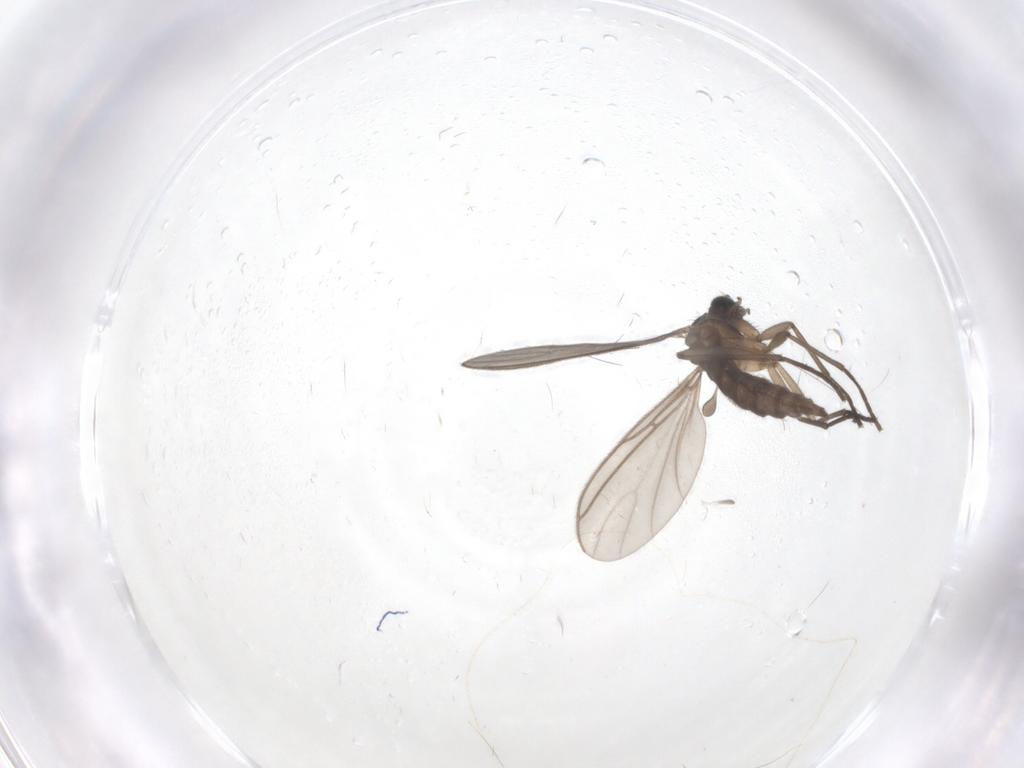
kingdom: Animalia
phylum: Arthropoda
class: Insecta
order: Diptera
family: Sciaridae
